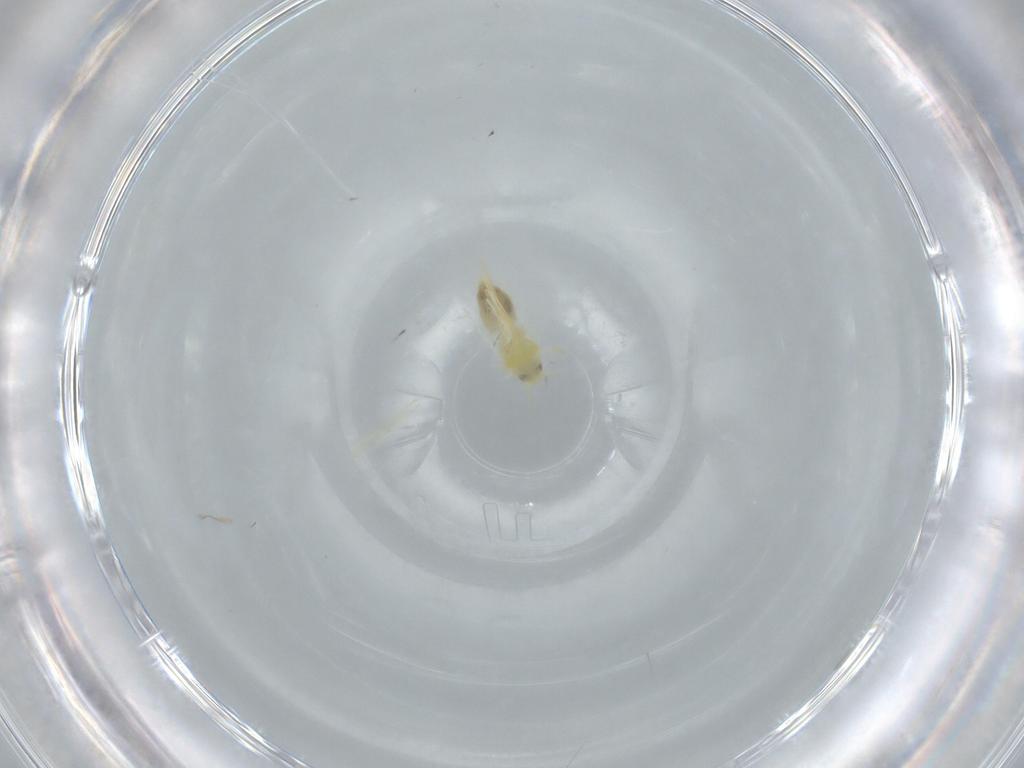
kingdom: Animalia
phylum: Arthropoda
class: Insecta
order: Hemiptera
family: Aleyrodidae
